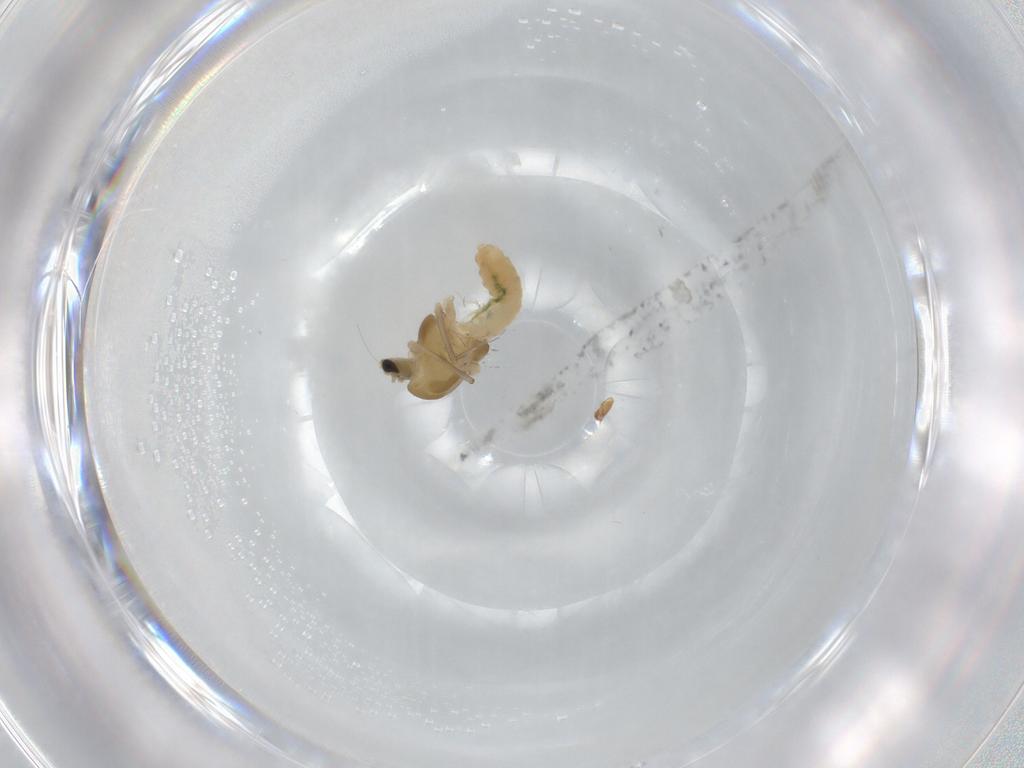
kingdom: Animalia
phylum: Arthropoda
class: Insecta
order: Diptera
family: Chironomidae
